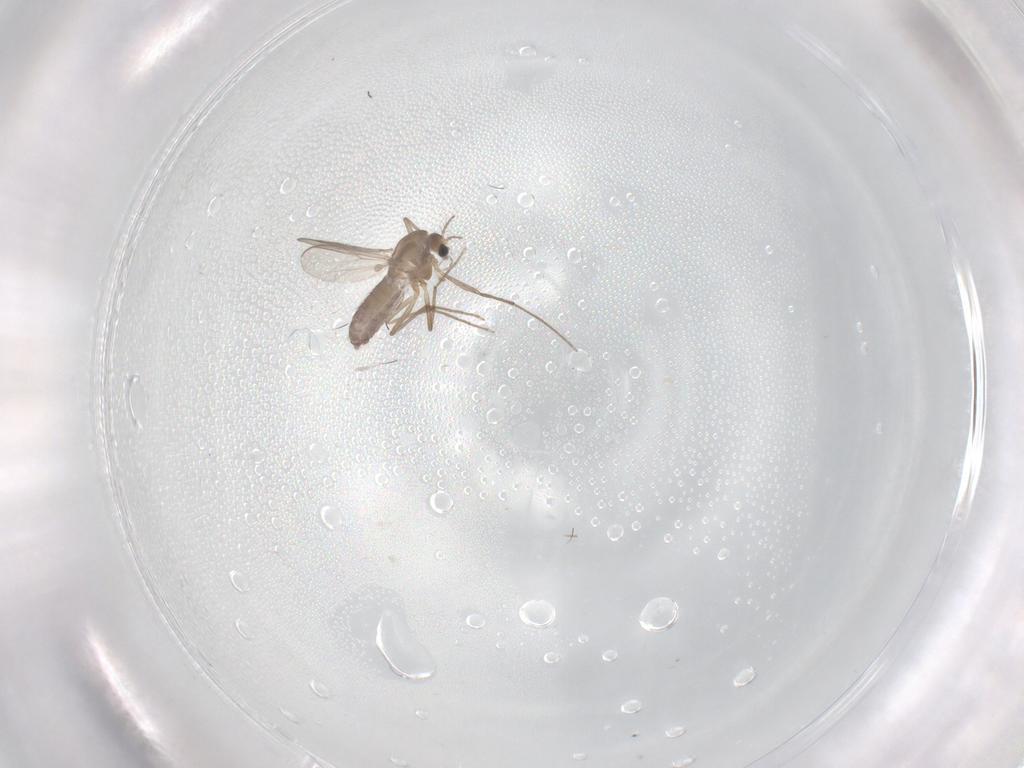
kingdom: Animalia
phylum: Arthropoda
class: Insecta
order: Diptera
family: Chironomidae
